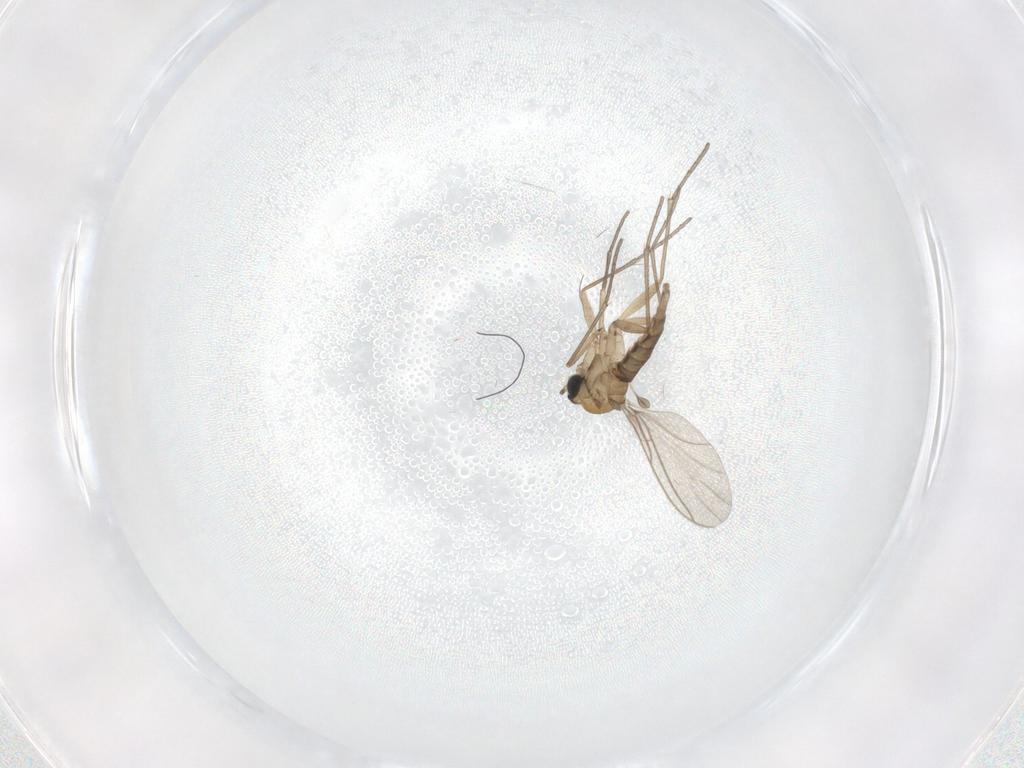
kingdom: Animalia
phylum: Arthropoda
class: Insecta
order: Diptera
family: Sciaridae
